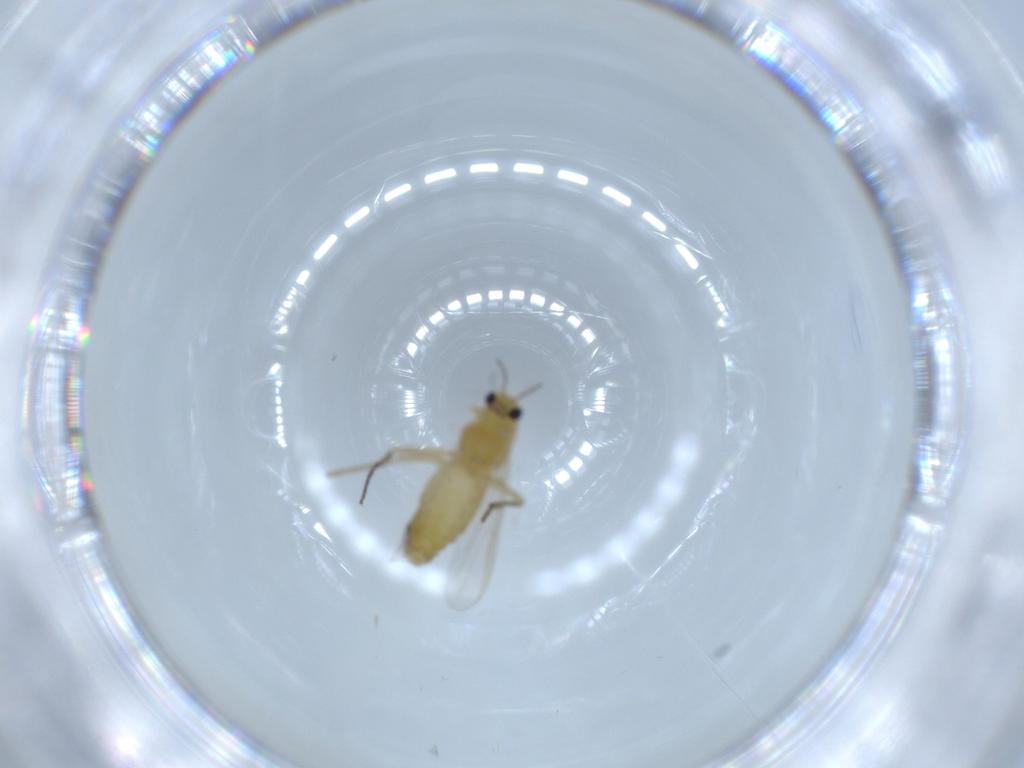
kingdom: Animalia
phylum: Arthropoda
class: Insecta
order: Diptera
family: Chironomidae
